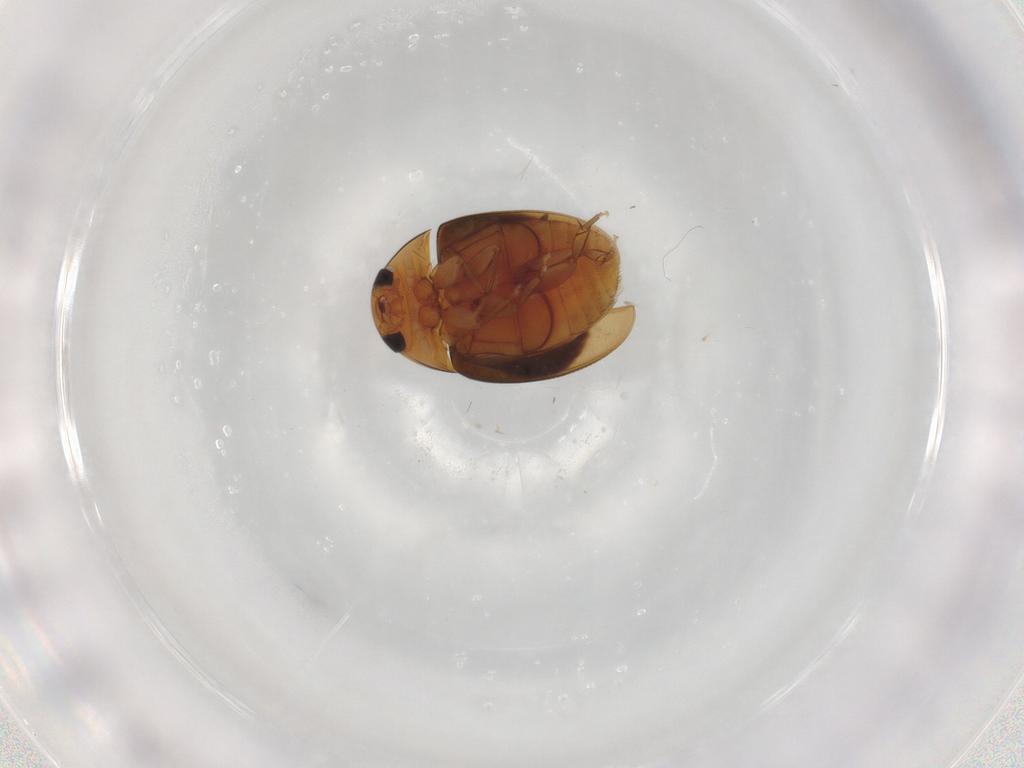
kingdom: Animalia
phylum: Arthropoda
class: Insecta
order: Coleoptera
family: Phalacridae
